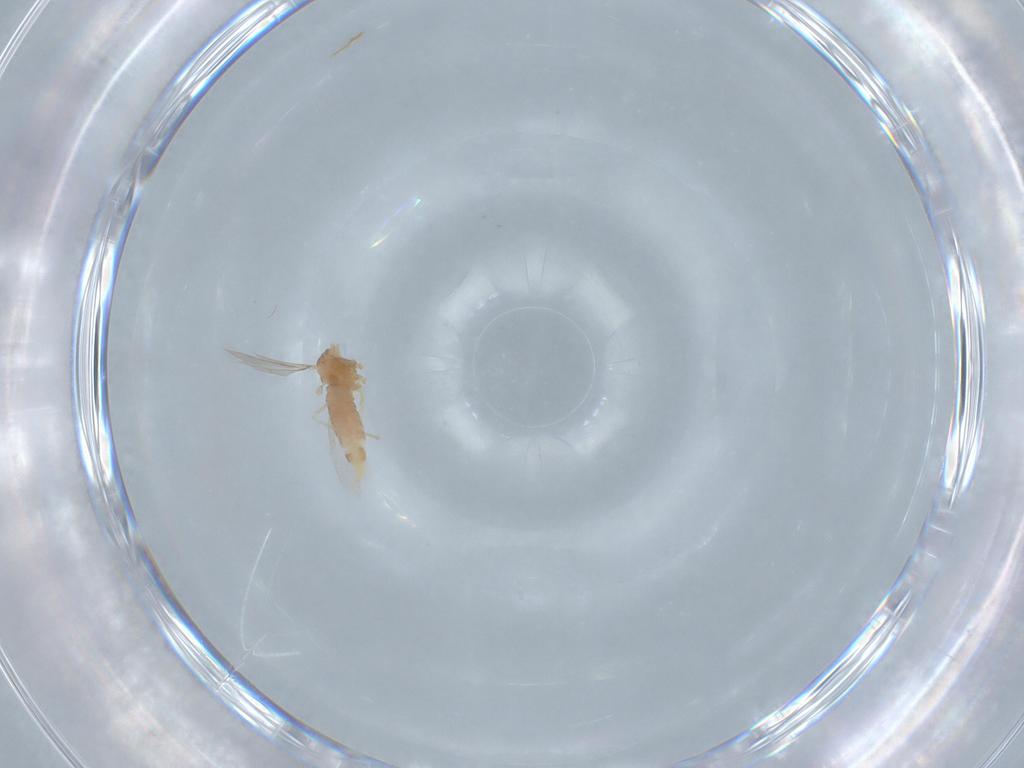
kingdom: Animalia
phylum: Arthropoda
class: Insecta
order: Diptera
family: Cecidomyiidae
